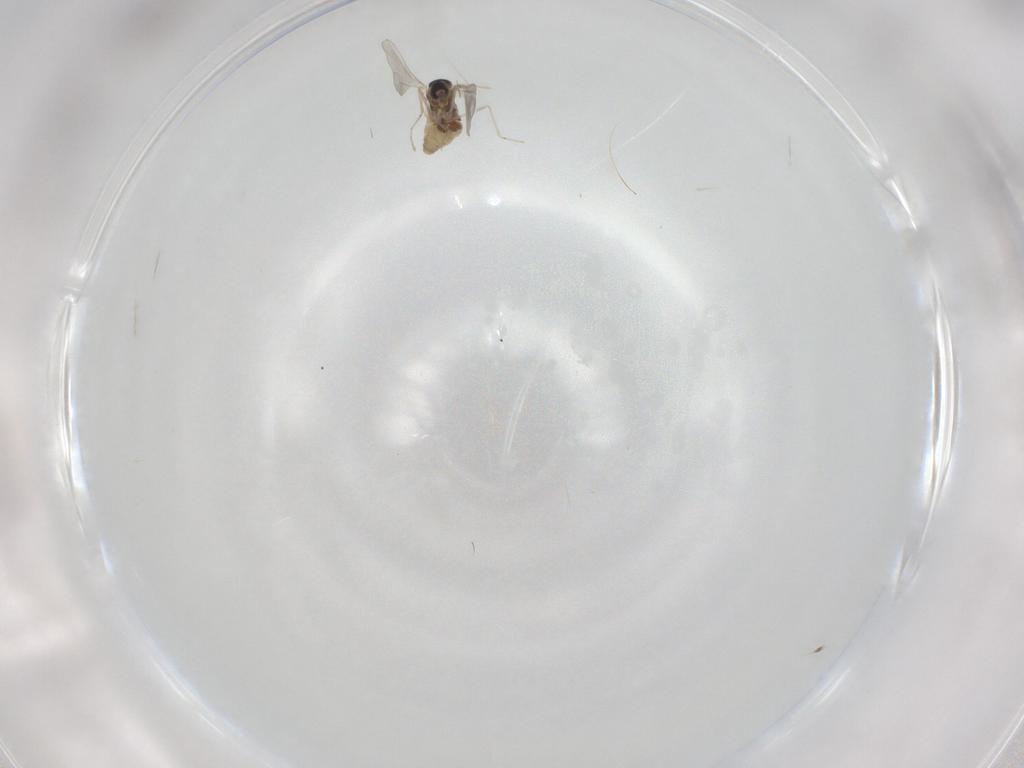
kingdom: Animalia
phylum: Arthropoda
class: Insecta
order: Diptera
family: Cecidomyiidae
